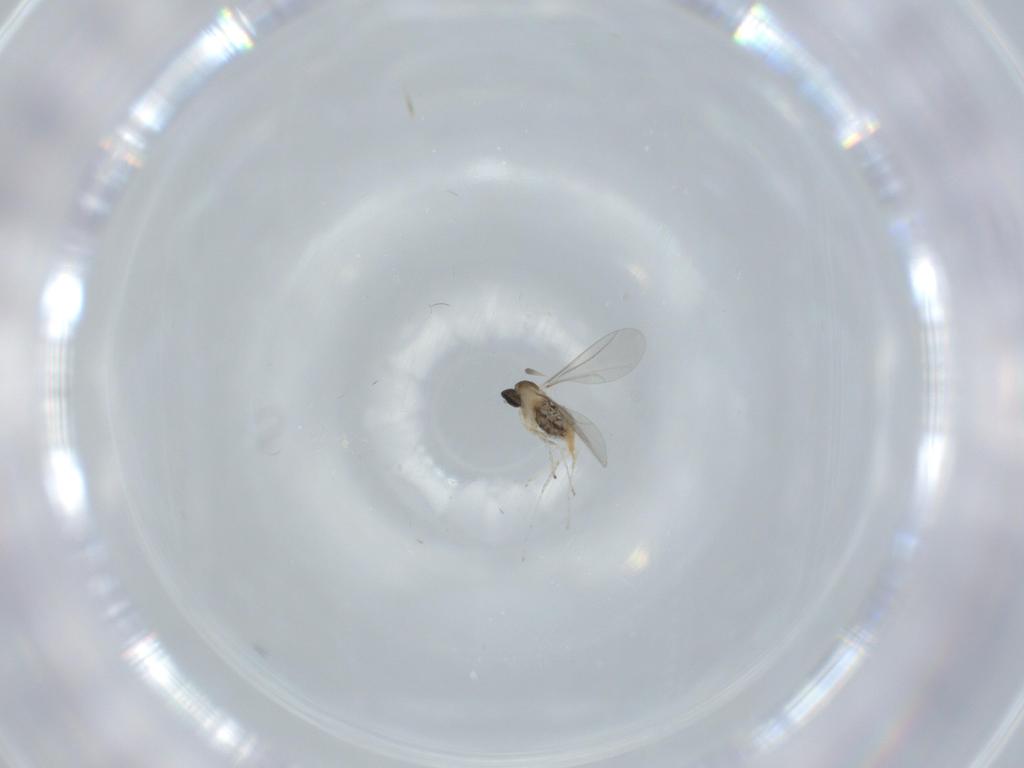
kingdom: Animalia
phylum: Arthropoda
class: Insecta
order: Diptera
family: Cecidomyiidae
